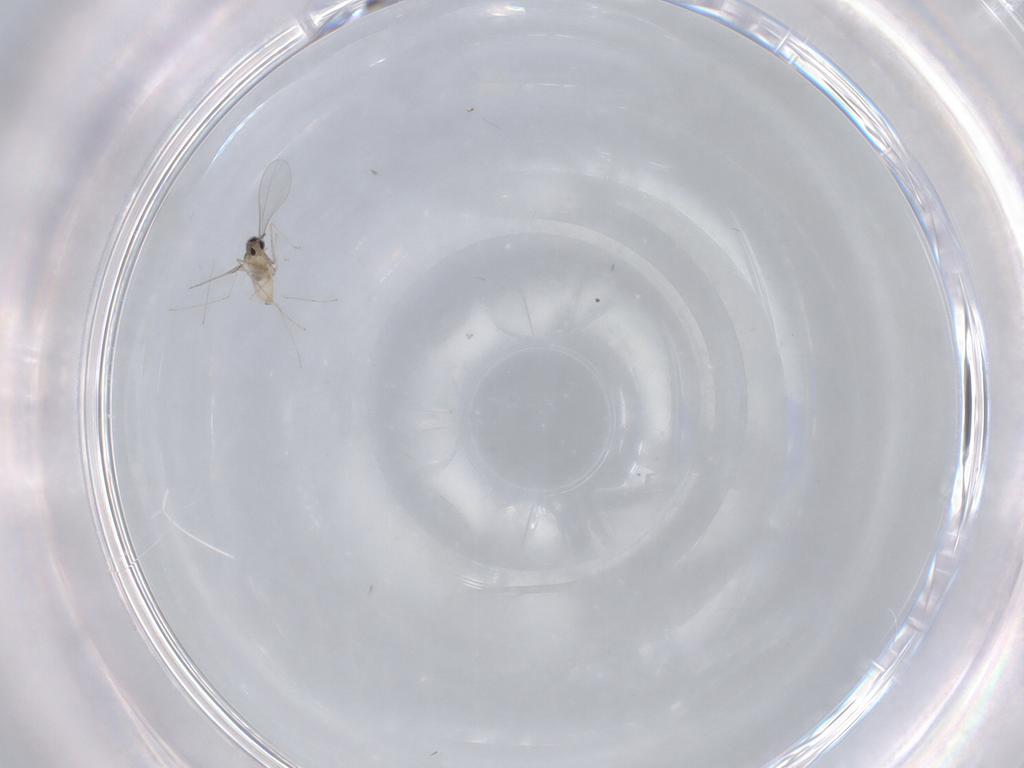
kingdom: Animalia
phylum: Arthropoda
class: Insecta
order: Diptera
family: Cecidomyiidae
